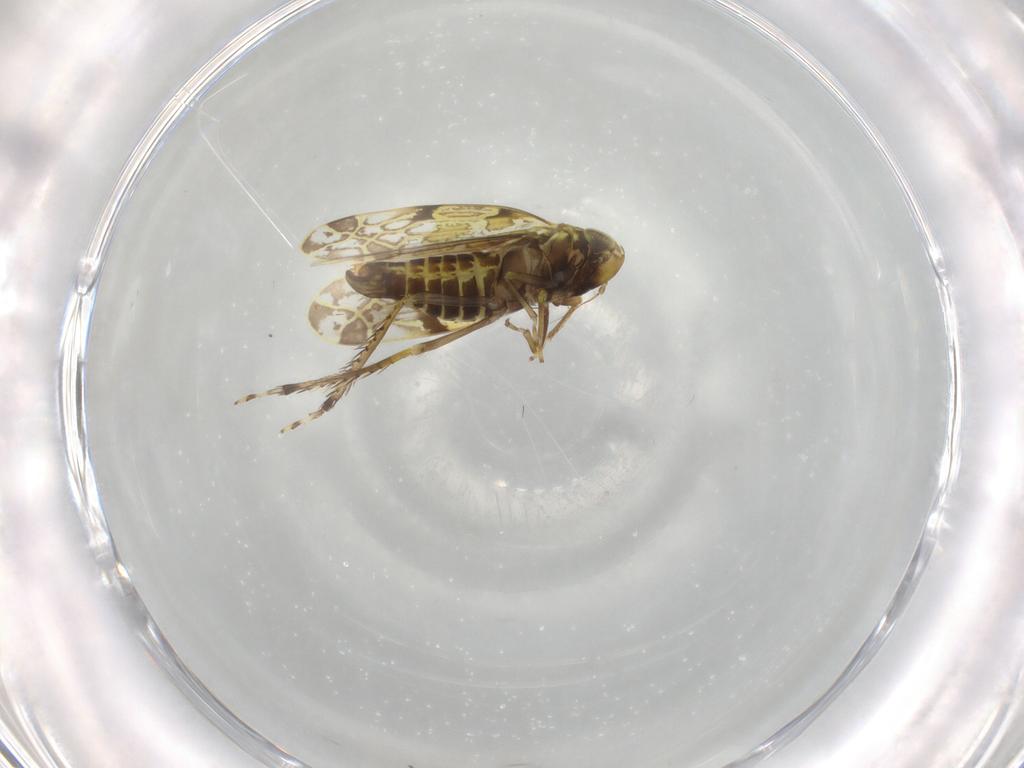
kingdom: Animalia
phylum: Arthropoda
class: Insecta
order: Hemiptera
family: Cicadellidae
